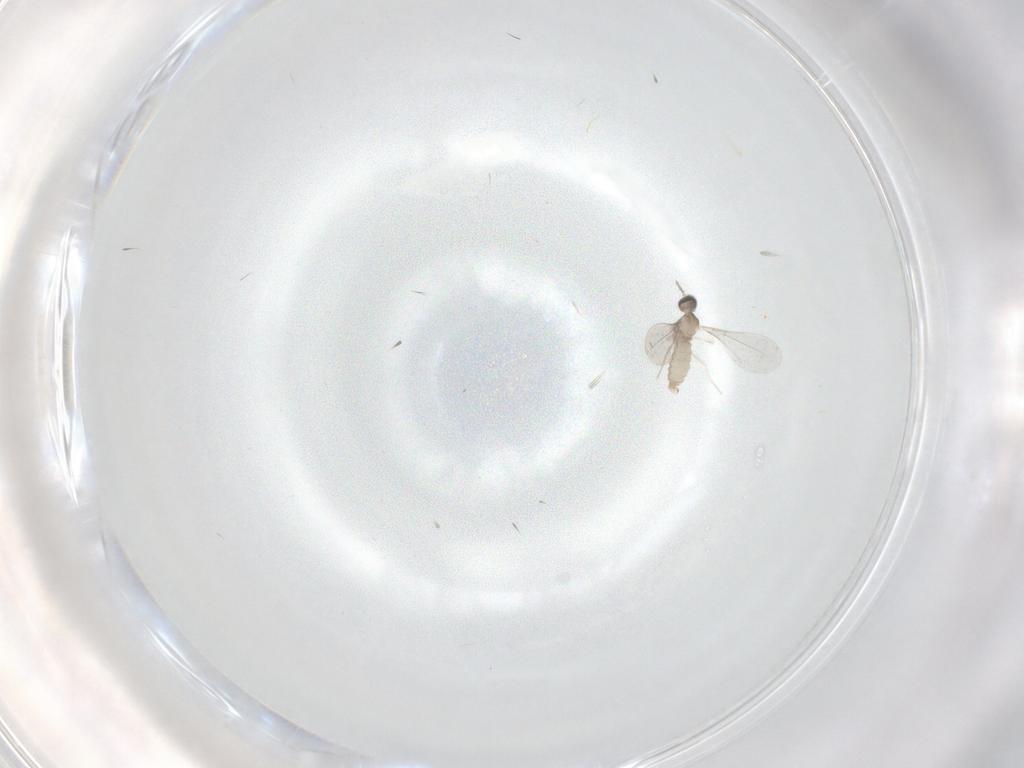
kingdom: Animalia
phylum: Arthropoda
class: Insecta
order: Diptera
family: Cecidomyiidae
